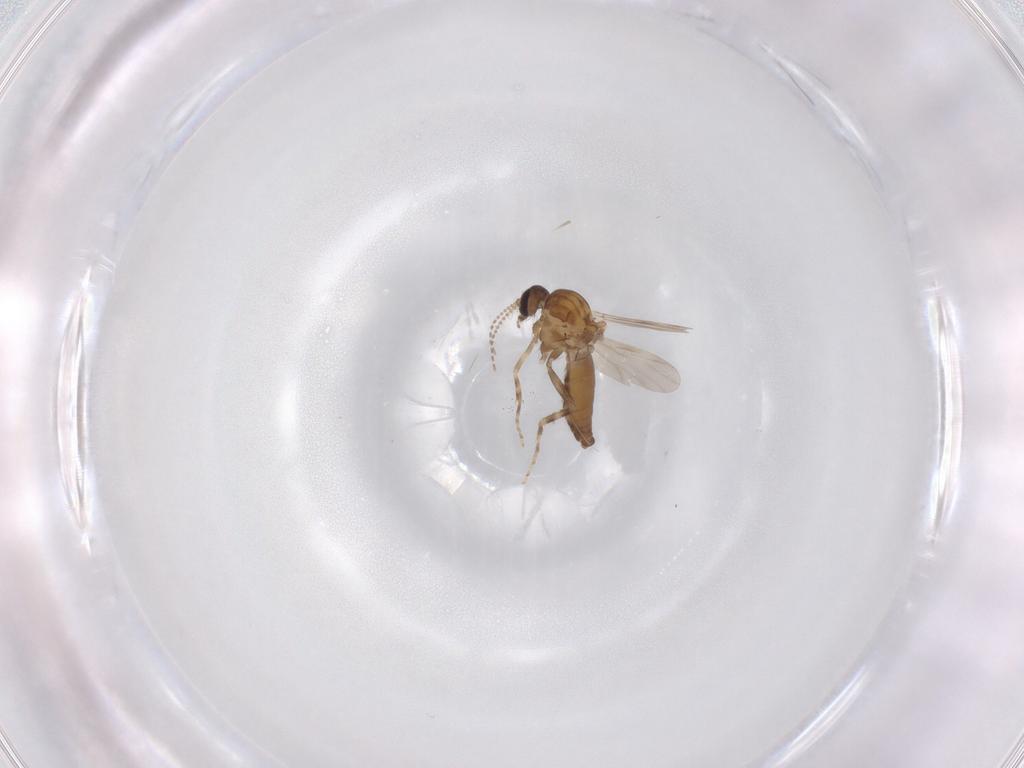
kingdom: Animalia
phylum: Arthropoda
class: Insecta
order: Diptera
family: Ceratopogonidae
